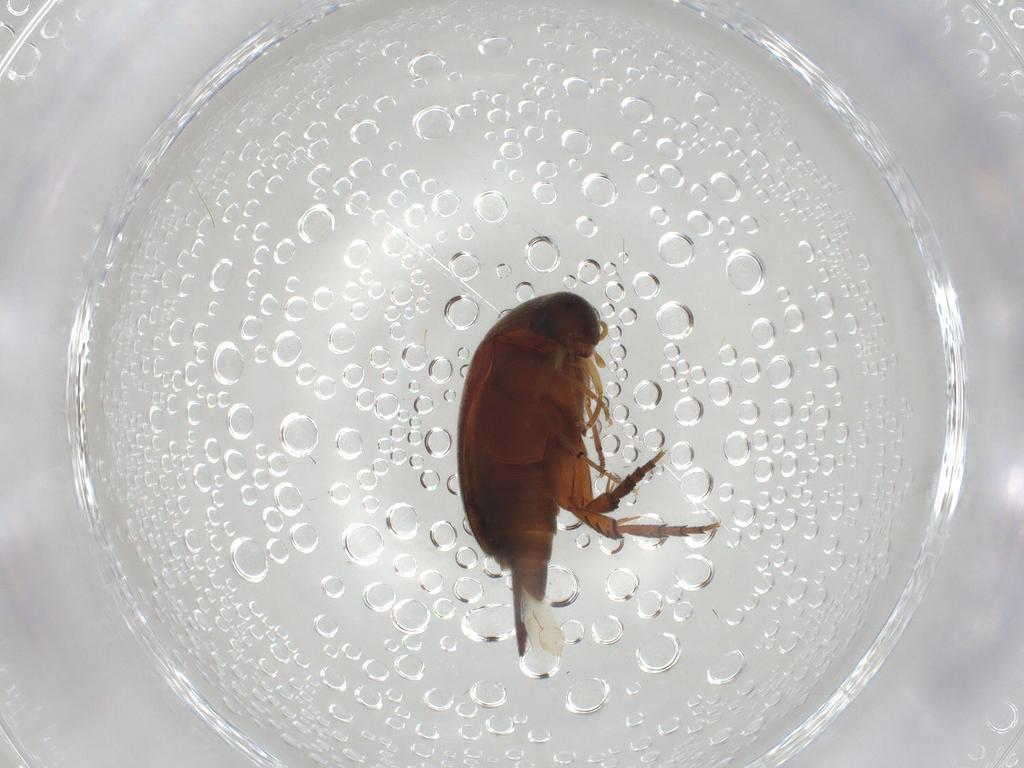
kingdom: Animalia
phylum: Arthropoda
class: Insecta
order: Coleoptera
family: Mordellidae
